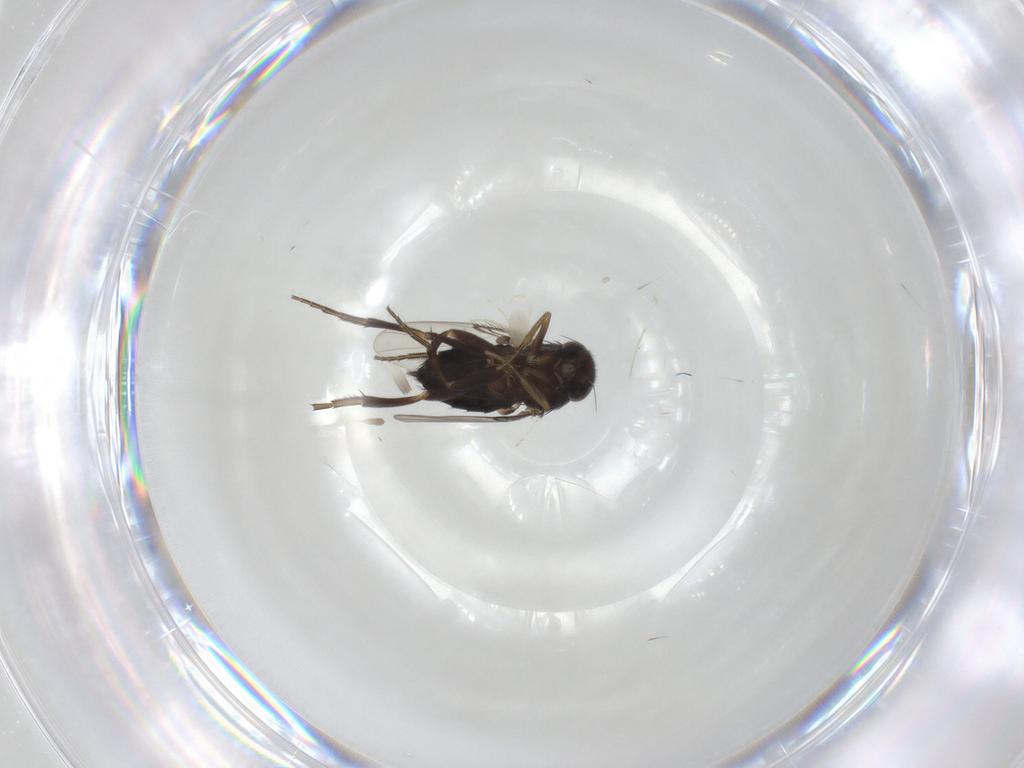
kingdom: Animalia
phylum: Arthropoda
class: Insecta
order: Diptera
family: Phoridae
